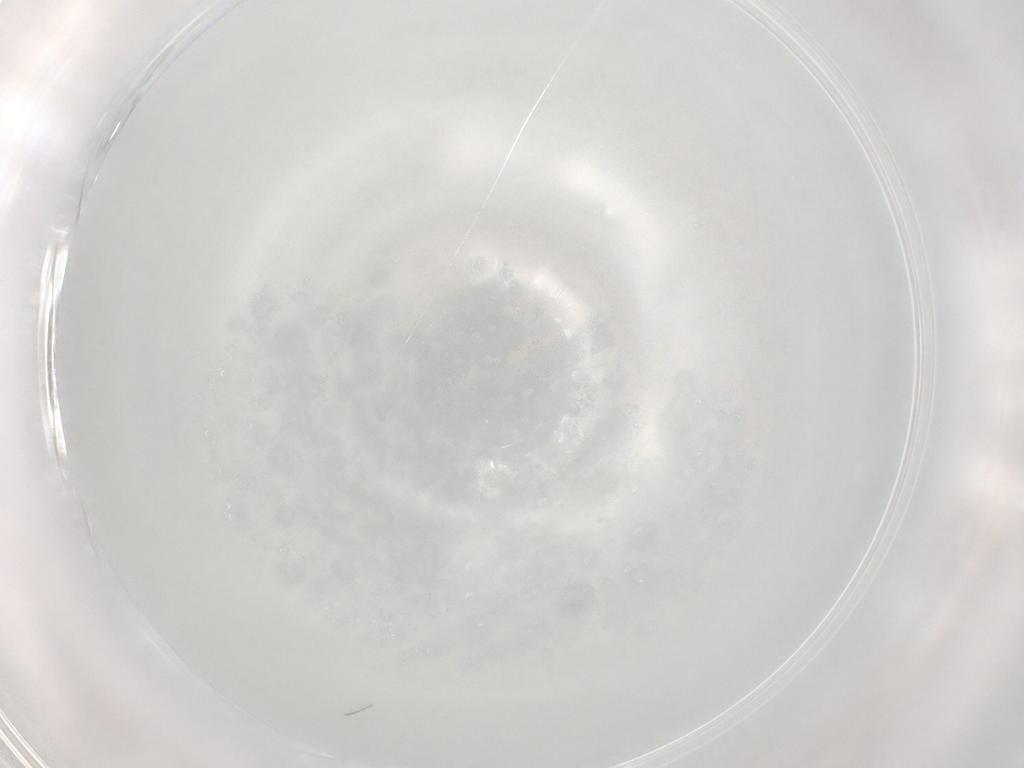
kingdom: Animalia
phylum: Arthropoda
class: Insecta
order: Diptera
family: Cecidomyiidae
